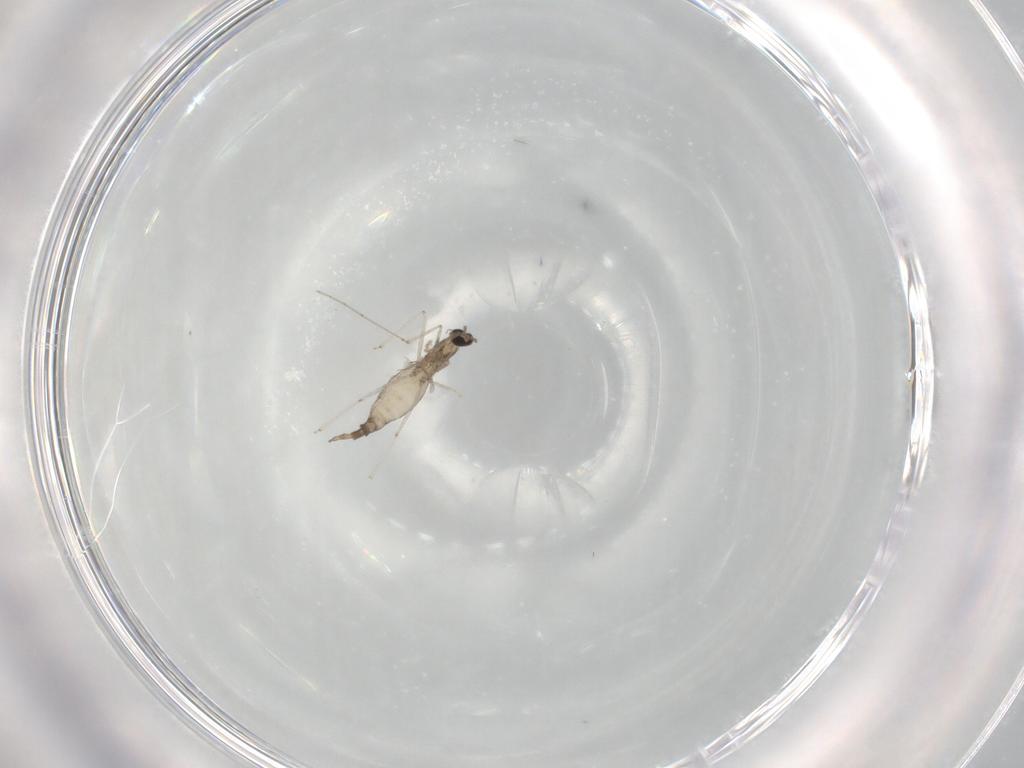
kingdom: Animalia
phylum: Arthropoda
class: Insecta
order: Diptera
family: Cecidomyiidae
